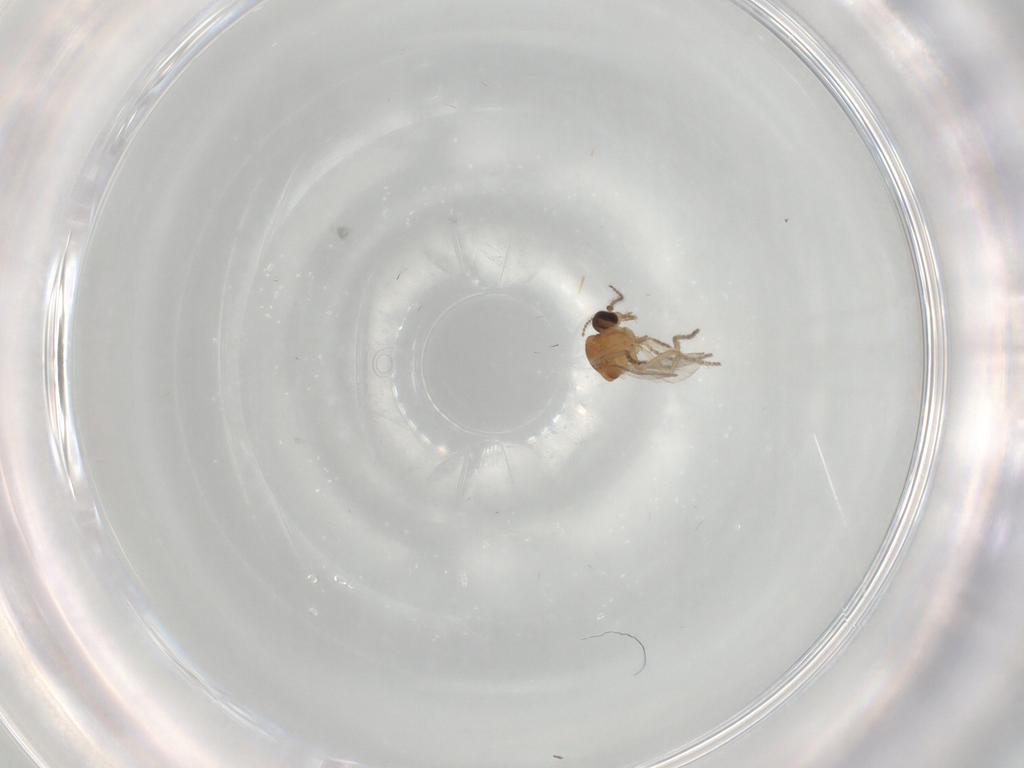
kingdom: Animalia
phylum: Arthropoda
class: Insecta
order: Diptera
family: Ceratopogonidae
